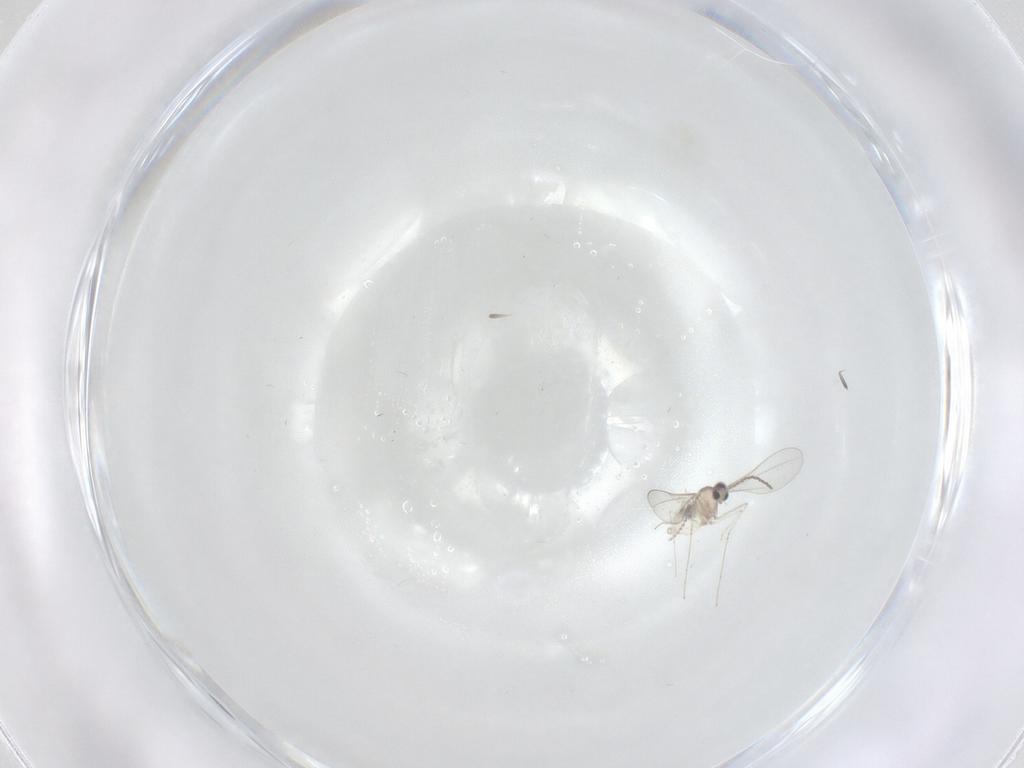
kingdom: Animalia
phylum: Arthropoda
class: Insecta
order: Diptera
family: Cecidomyiidae
